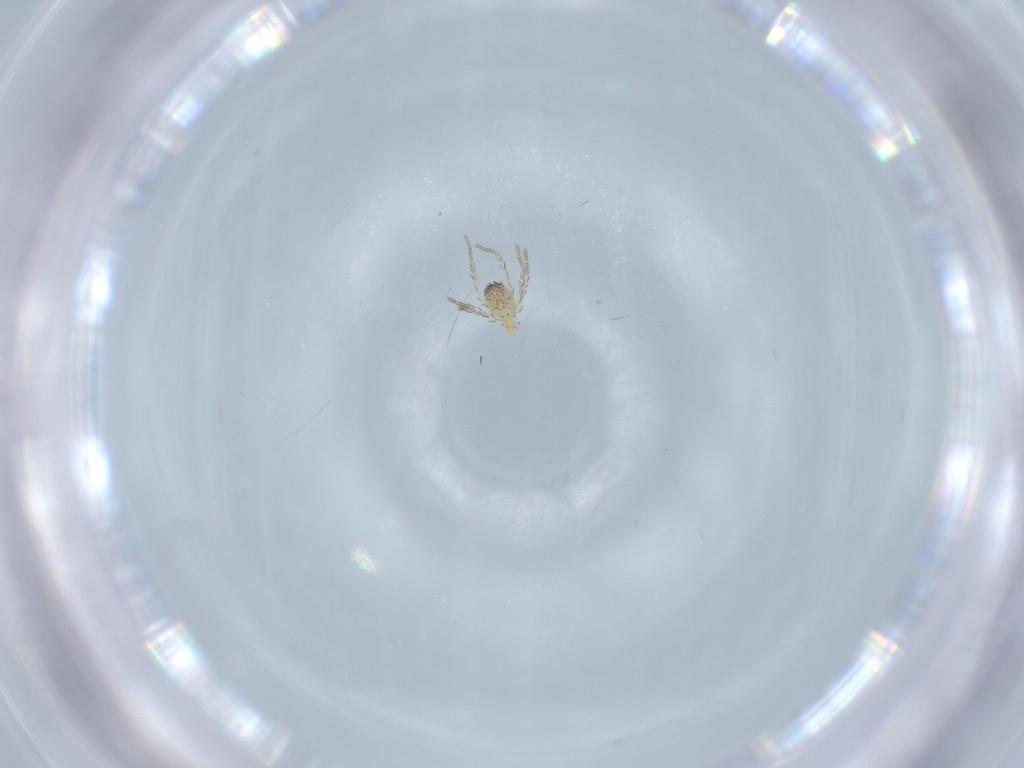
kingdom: Animalia
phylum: Arthropoda
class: Arachnida
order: Trombidiformes
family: Erythraeidae
